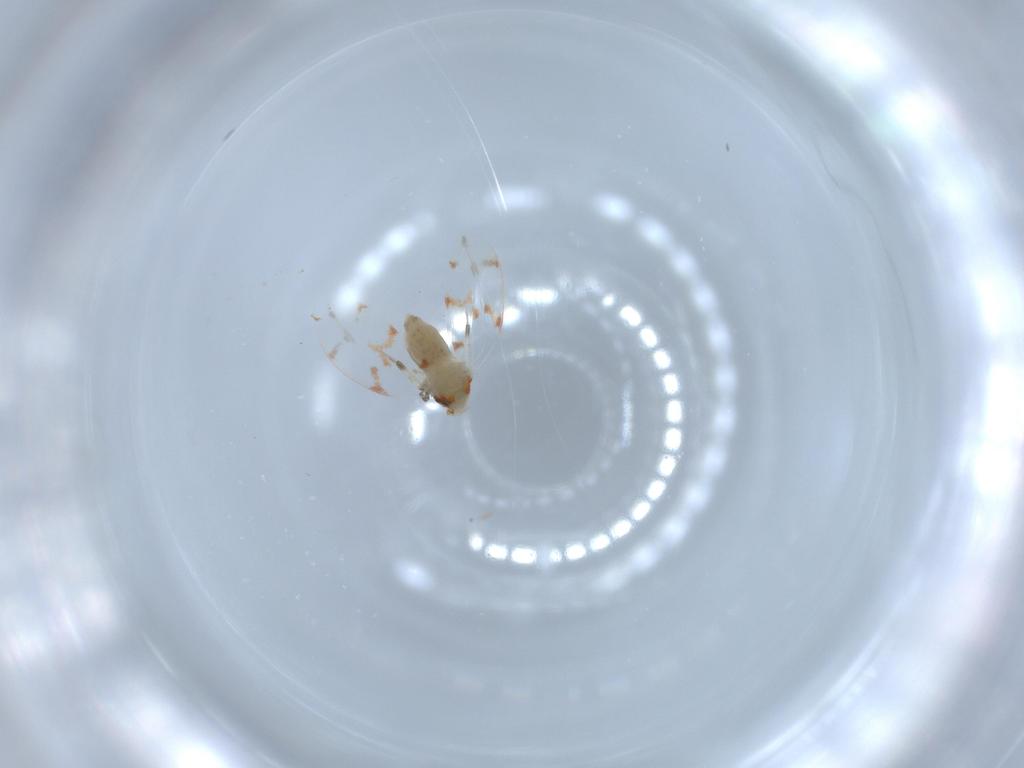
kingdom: Animalia
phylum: Arthropoda
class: Insecta
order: Hemiptera
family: Aleyrodidae
